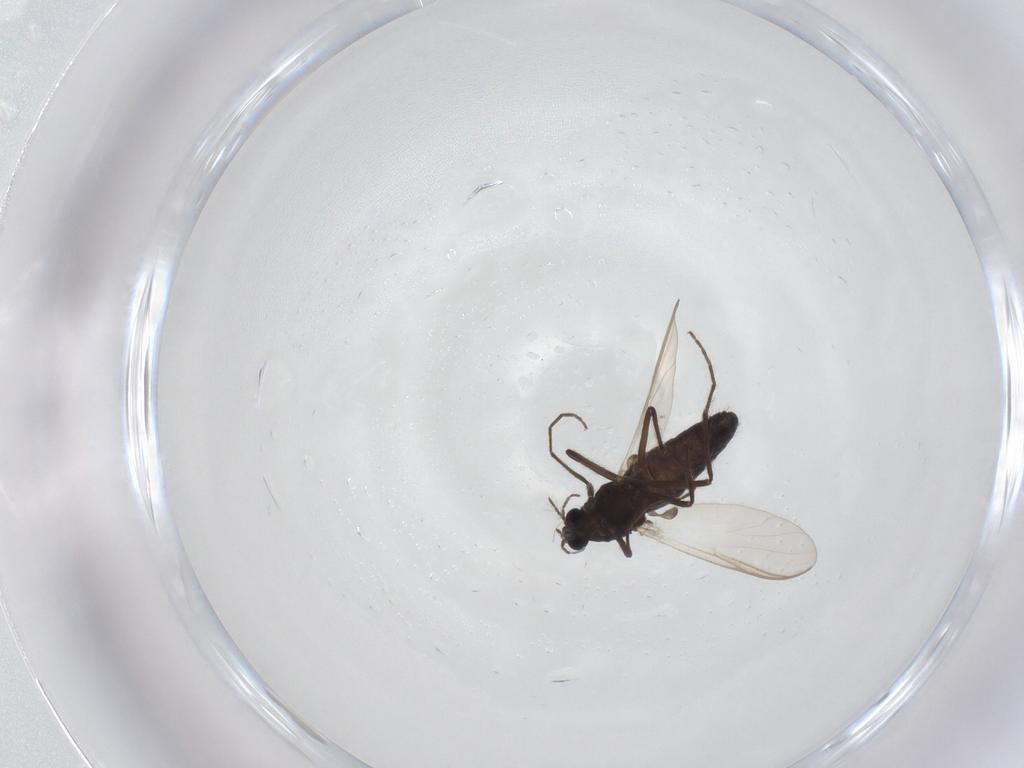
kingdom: Animalia
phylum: Arthropoda
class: Insecta
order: Diptera
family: Chironomidae
